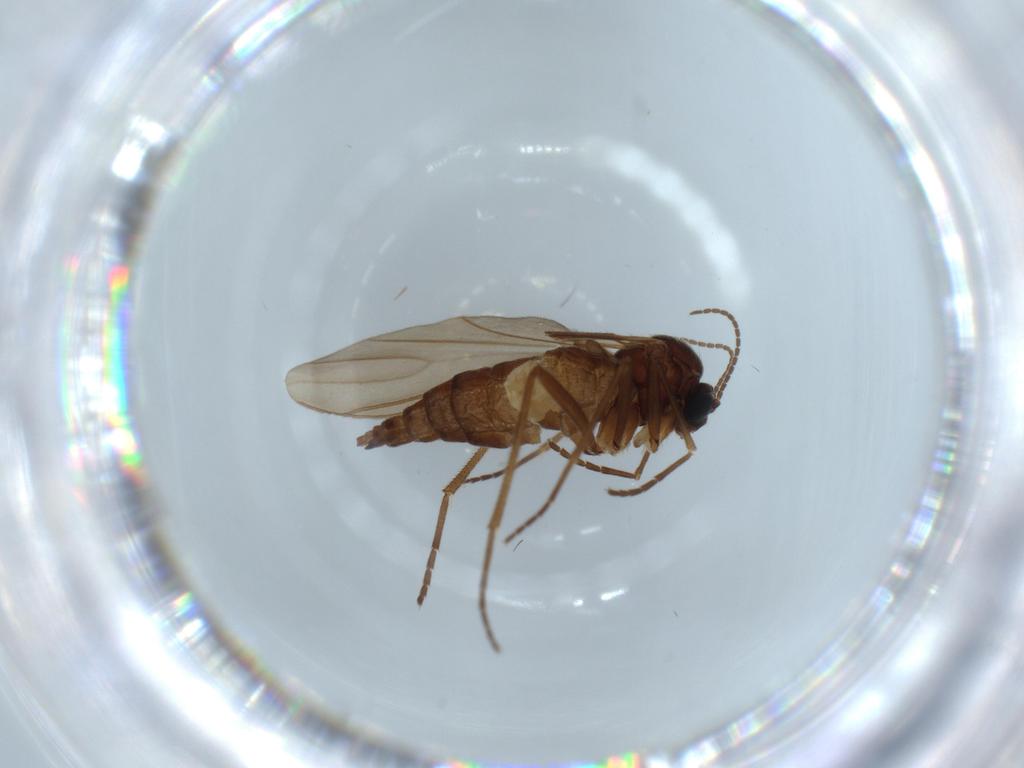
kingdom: Animalia
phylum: Arthropoda
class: Insecta
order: Diptera
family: Sciaridae
